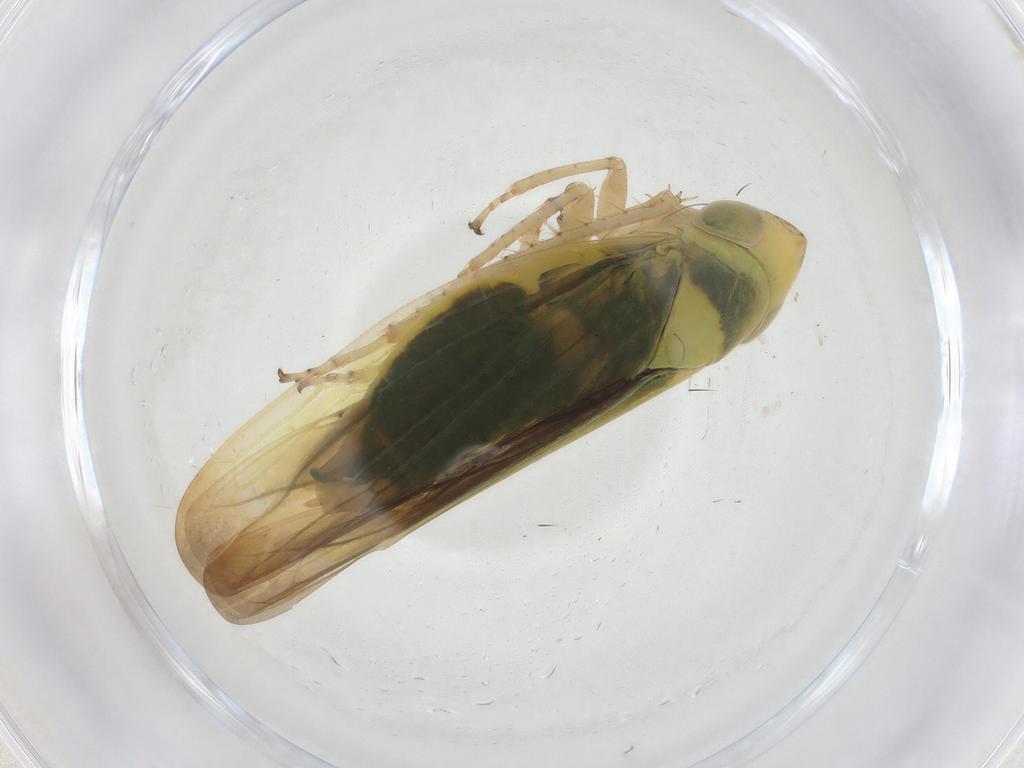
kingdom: Animalia
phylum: Arthropoda
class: Insecta
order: Hemiptera
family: Cicadellidae
